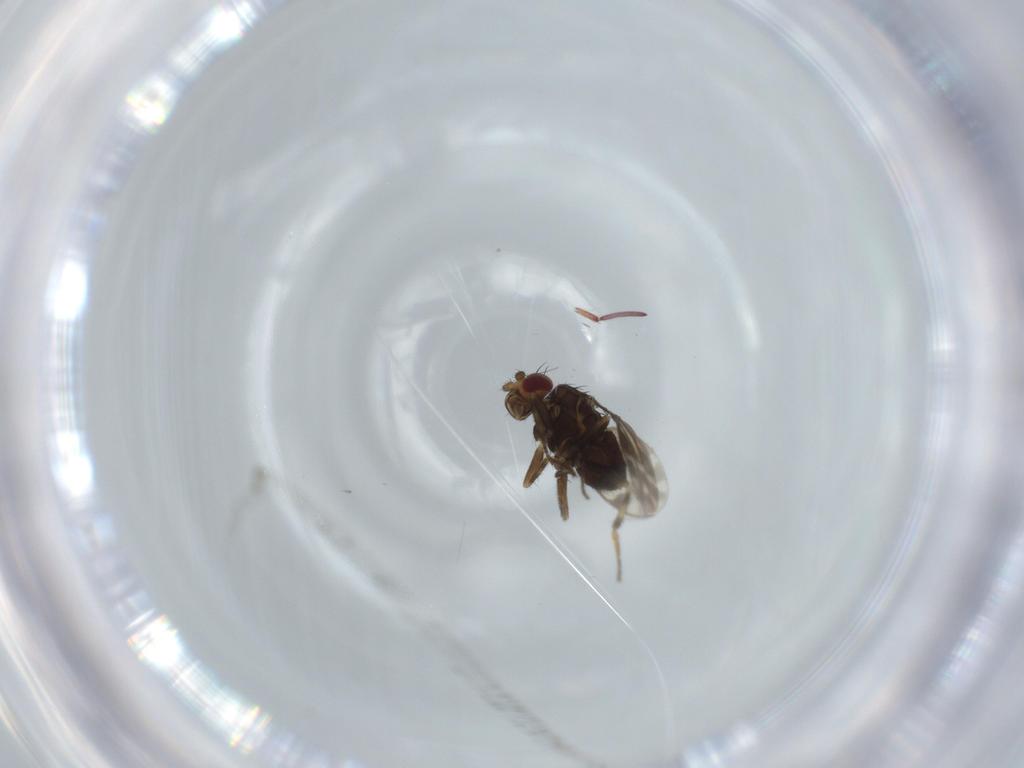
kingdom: Animalia
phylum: Arthropoda
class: Insecta
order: Diptera
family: Sphaeroceridae
